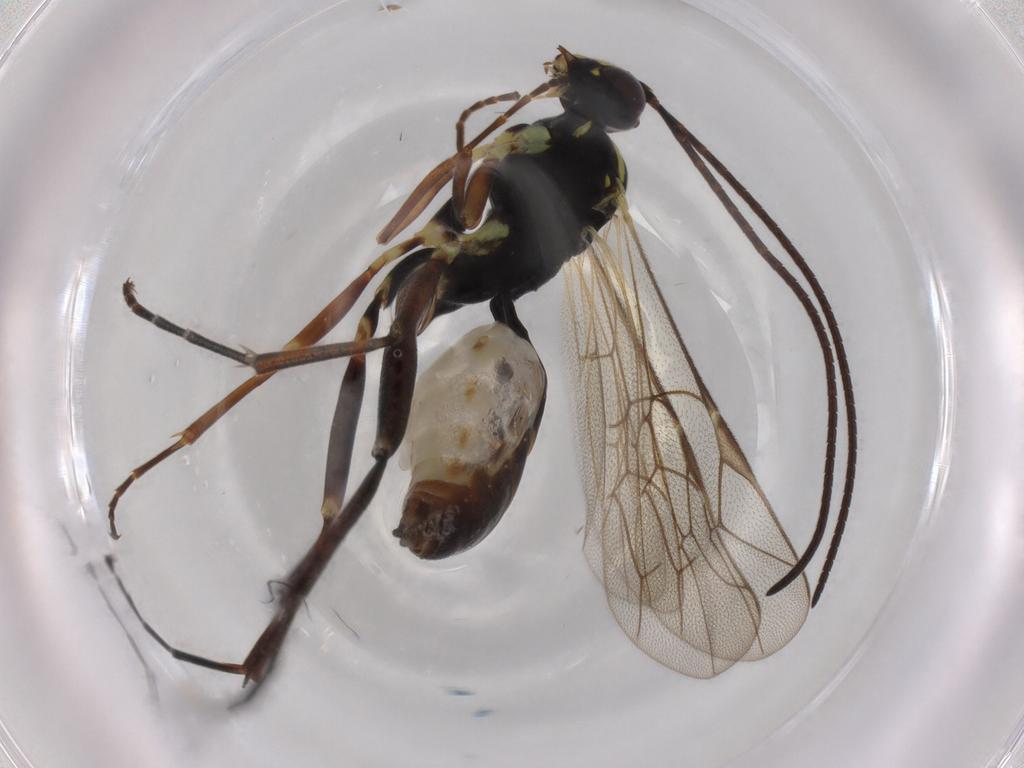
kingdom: Animalia
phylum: Arthropoda
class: Insecta
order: Hymenoptera
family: Ichneumonidae
